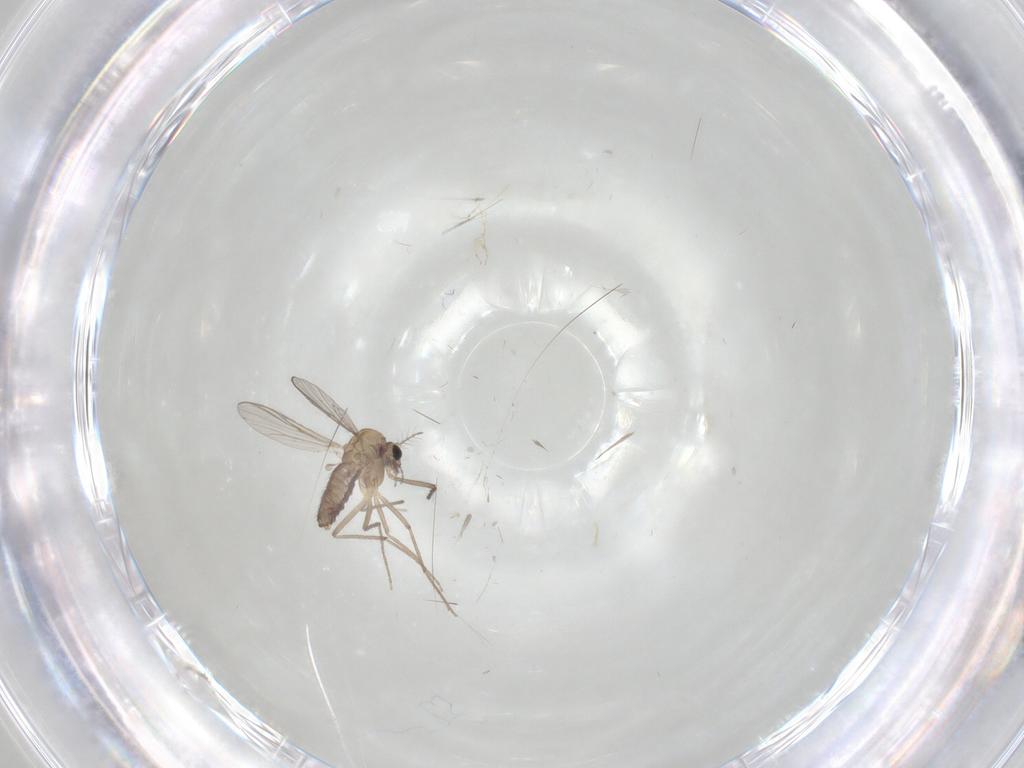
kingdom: Animalia
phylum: Arthropoda
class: Insecta
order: Diptera
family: Chironomidae
